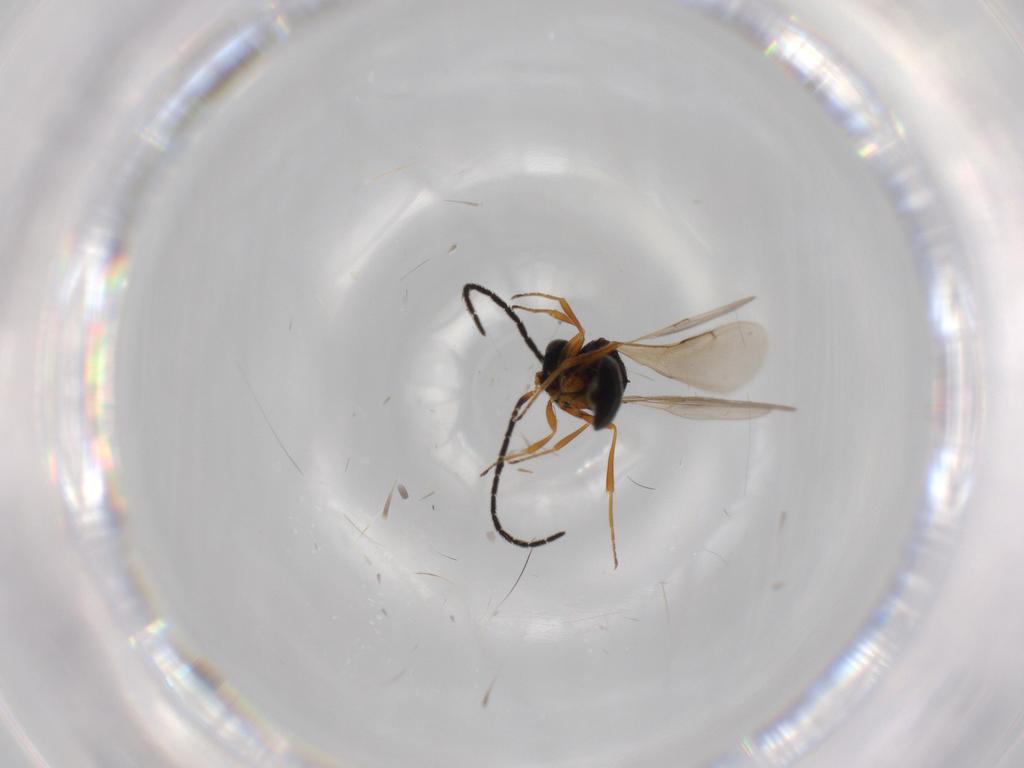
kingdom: Animalia
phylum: Arthropoda
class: Insecta
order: Hymenoptera
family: Scelionidae
